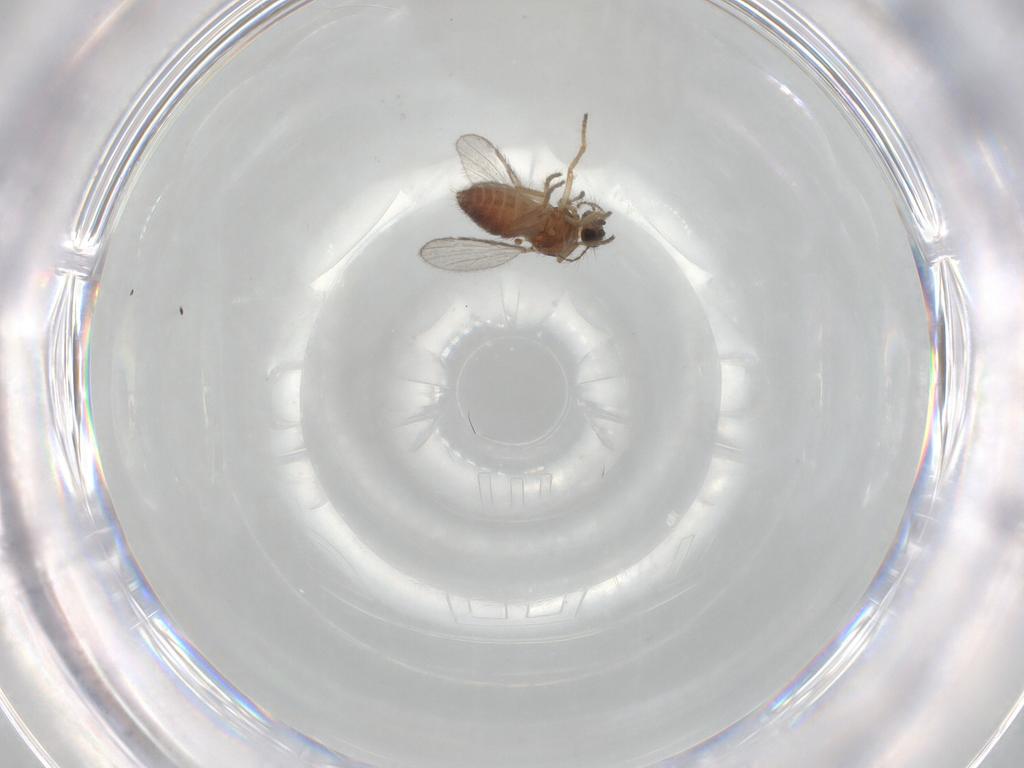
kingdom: Animalia
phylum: Arthropoda
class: Insecta
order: Diptera
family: Ceratopogonidae
